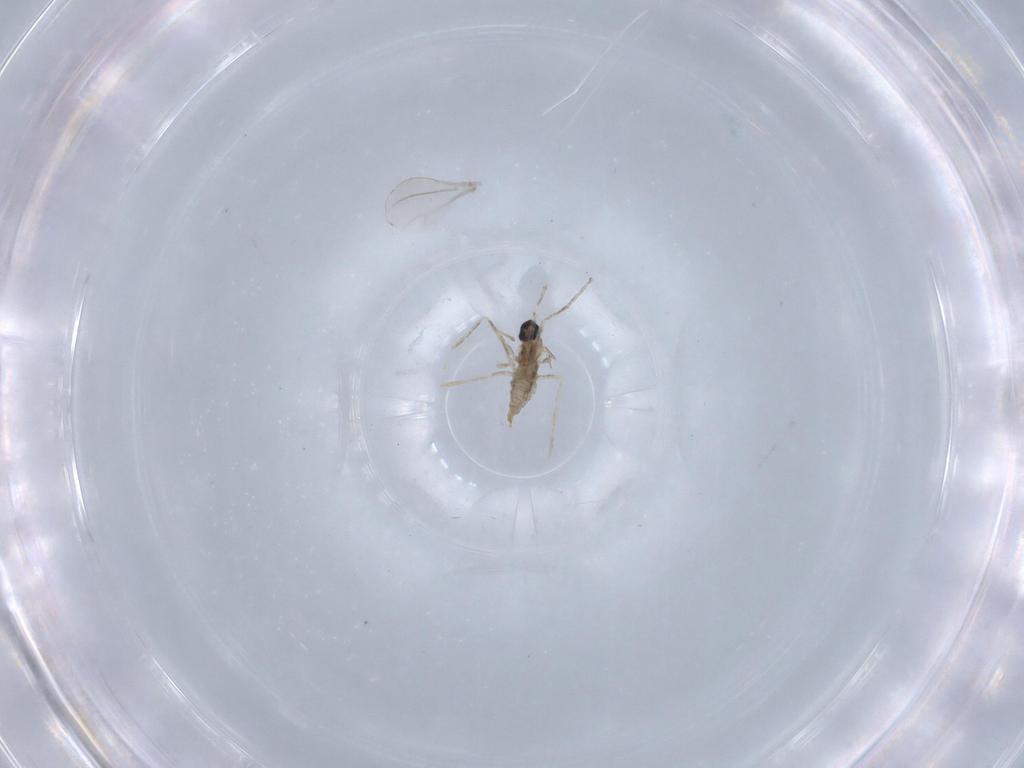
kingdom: Animalia
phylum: Arthropoda
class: Insecta
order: Diptera
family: Cecidomyiidae
